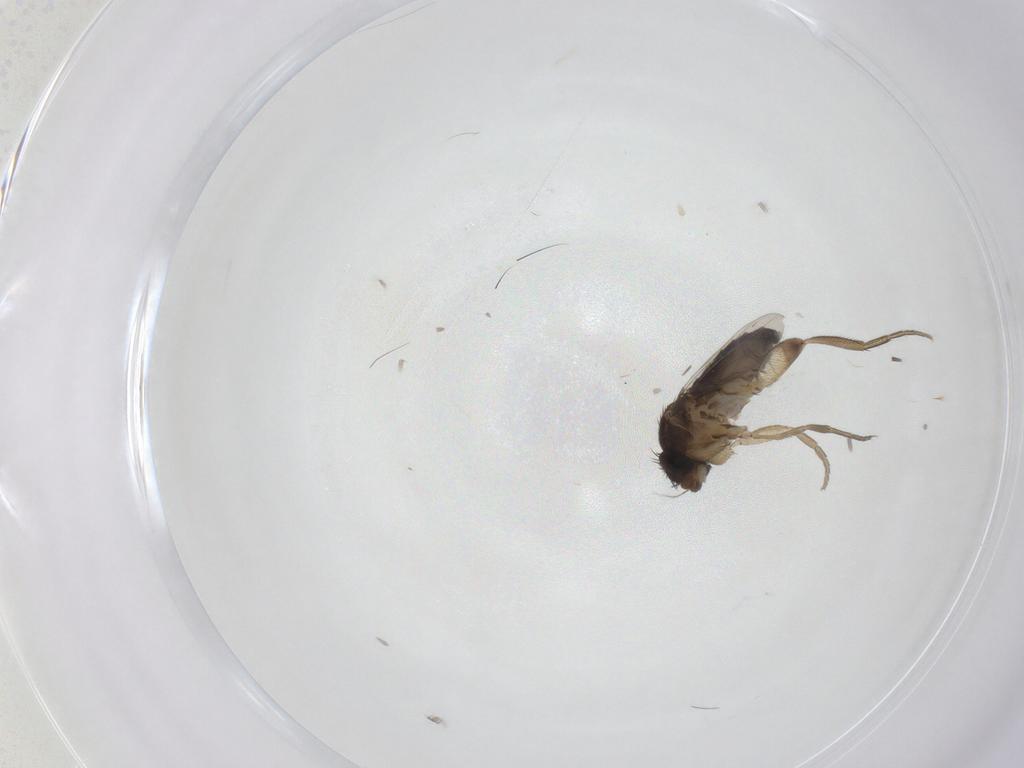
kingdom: Animalia
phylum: Arthropoda
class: Insecta
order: Diptera
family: Phoridae
